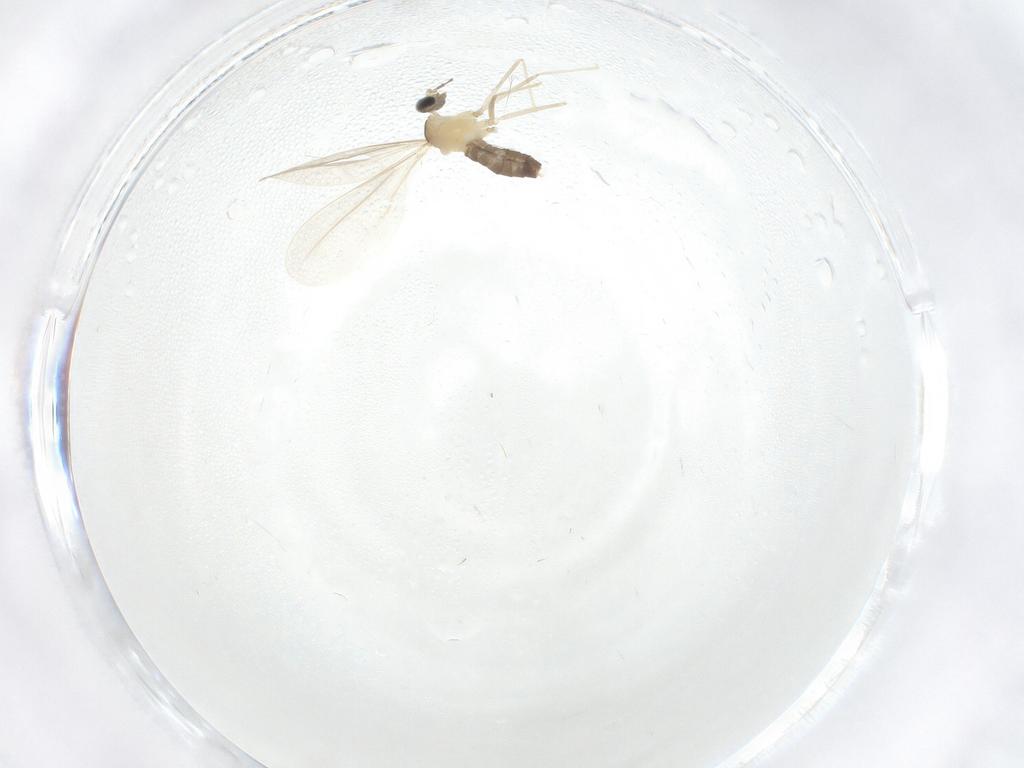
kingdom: Animalia
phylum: Arthropoda
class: Insecta
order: Diptera
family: Cecidomyiidae
